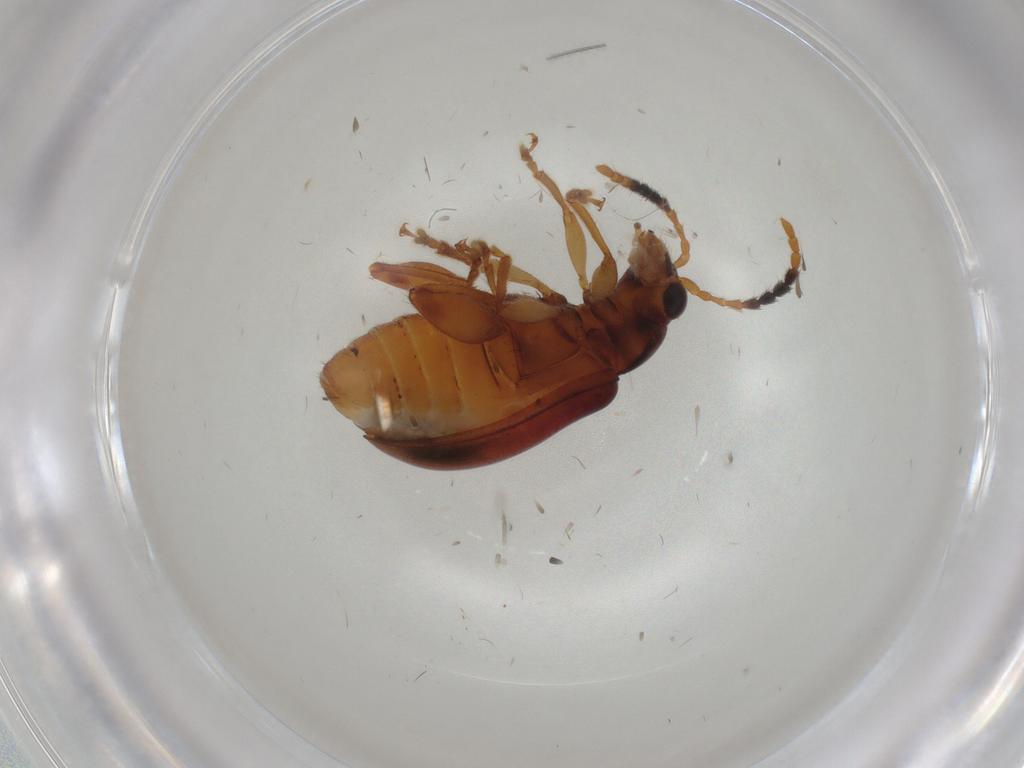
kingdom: Animalia
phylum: Arthropoda
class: Insecta
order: Coleoptera
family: Chrysomelidae
